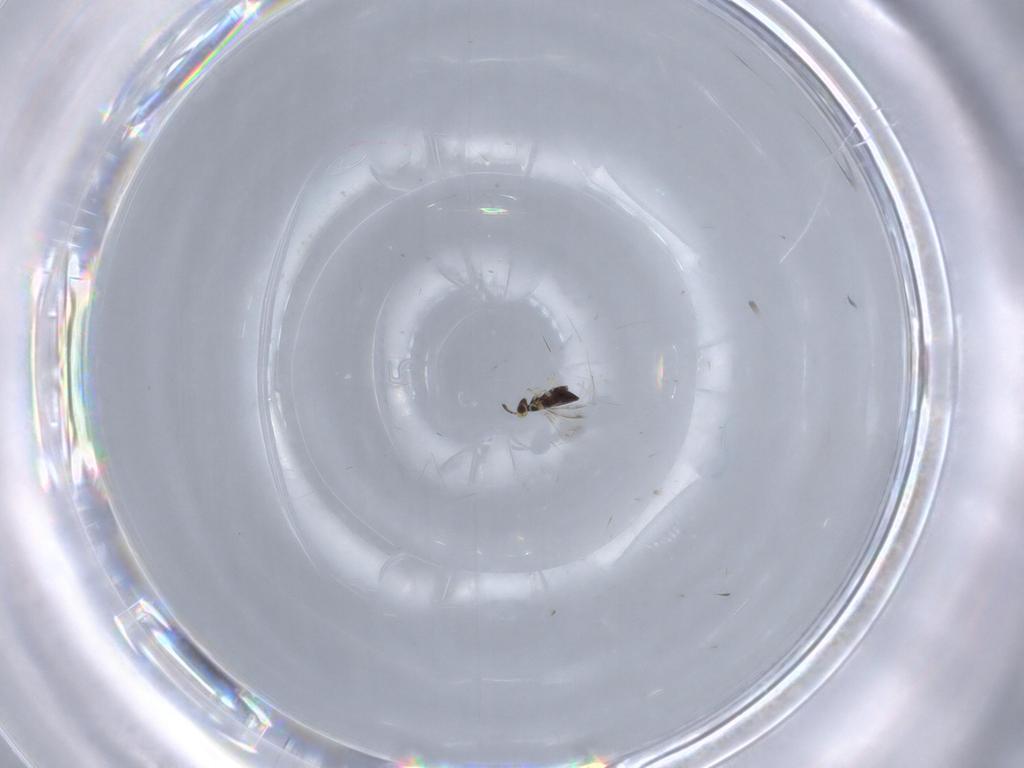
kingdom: Animalia
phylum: Arthropoda
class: Insecta
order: Hymenoptera
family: Signiphoridae
